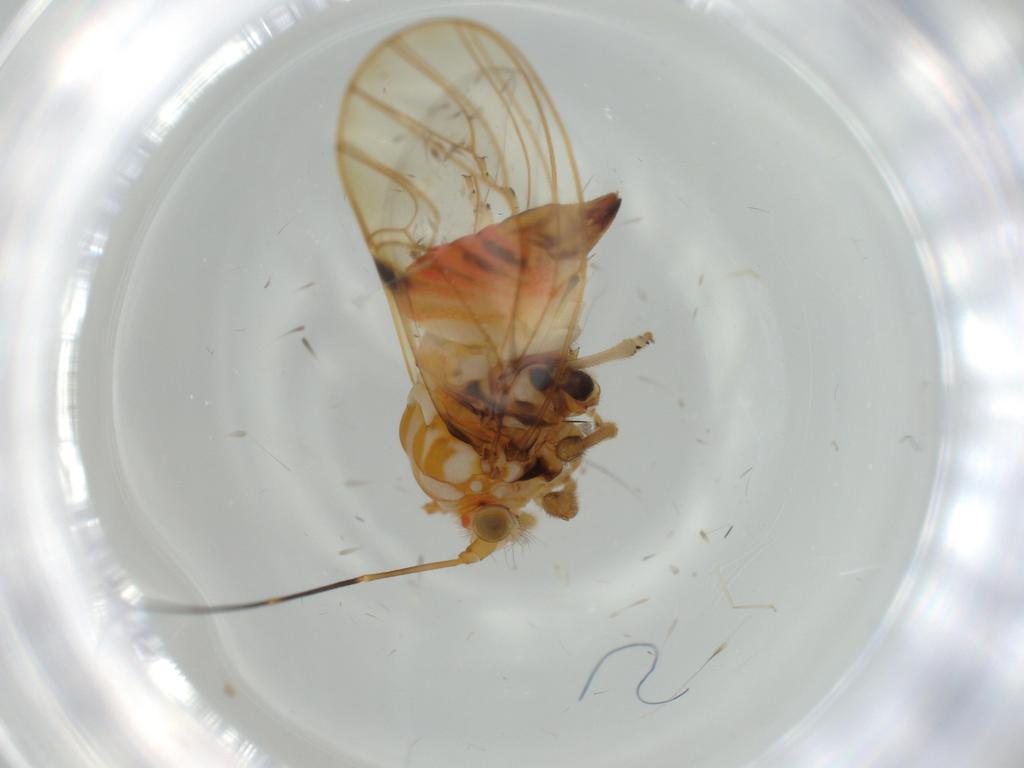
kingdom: Animalia
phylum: Arthropoda
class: Insecta
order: Hemiptera
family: Psyllidae
